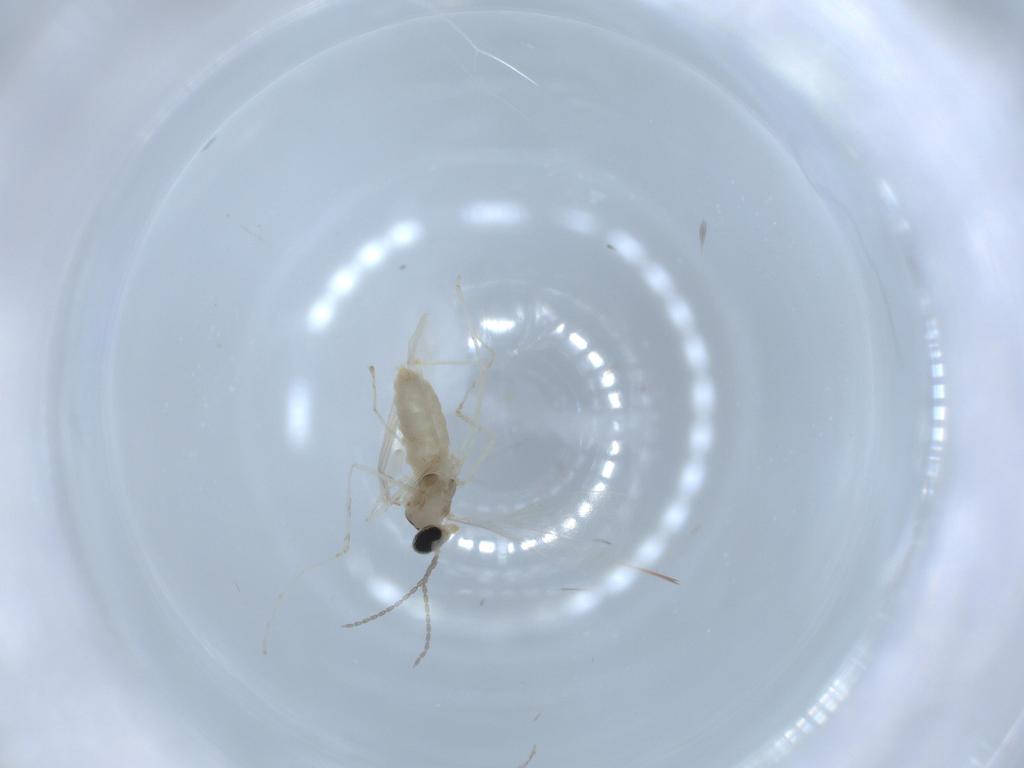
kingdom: Animalia
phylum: Arthropoda
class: Insecta
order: Diptera
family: Cecidomyiidae
